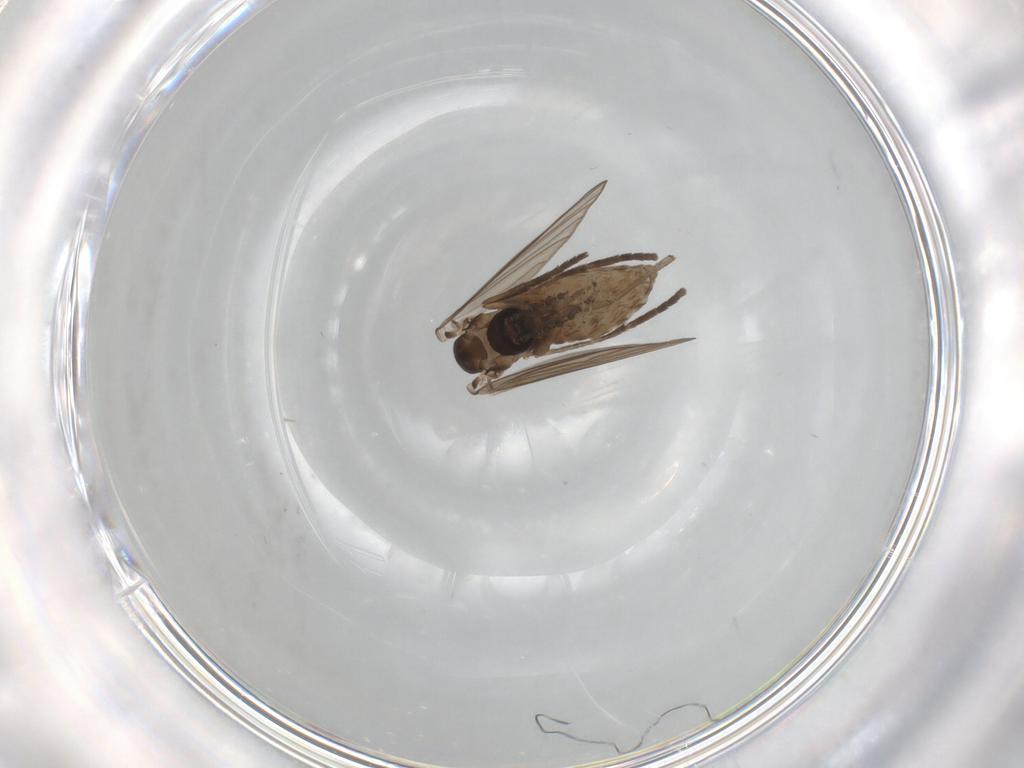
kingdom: Animalia
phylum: Arthropoda
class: Insecta
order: Diptera
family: Psychodidae
